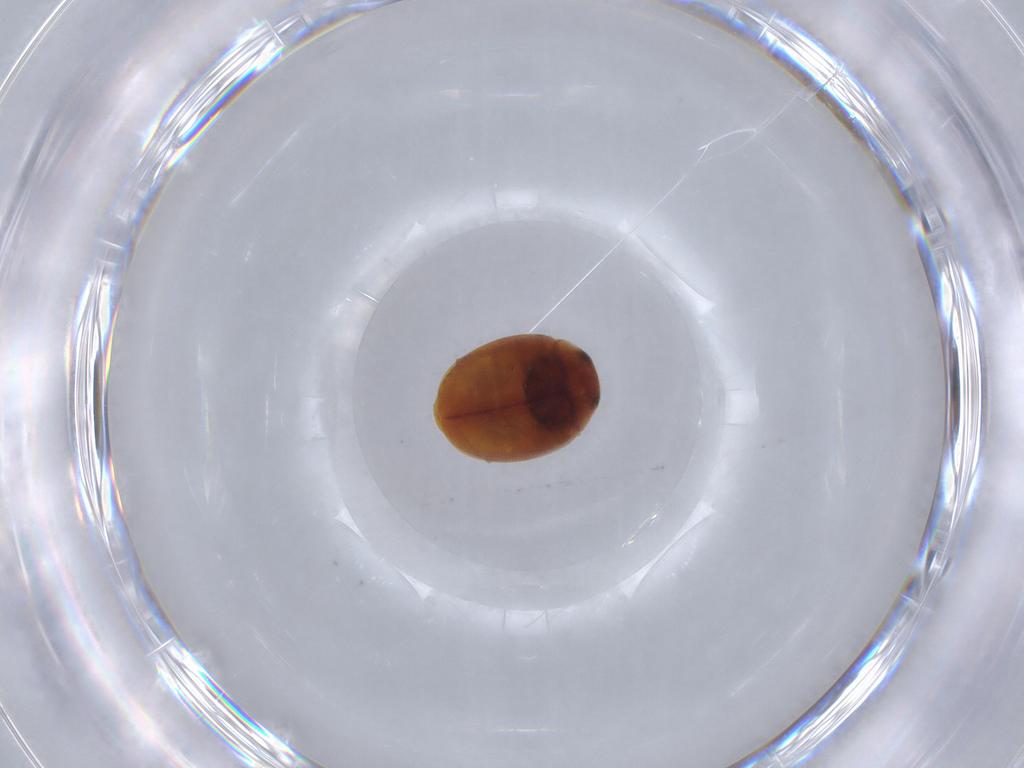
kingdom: Animalia
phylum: Arthropoda
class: Insecta
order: Coleoptera
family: Coccinellidae
